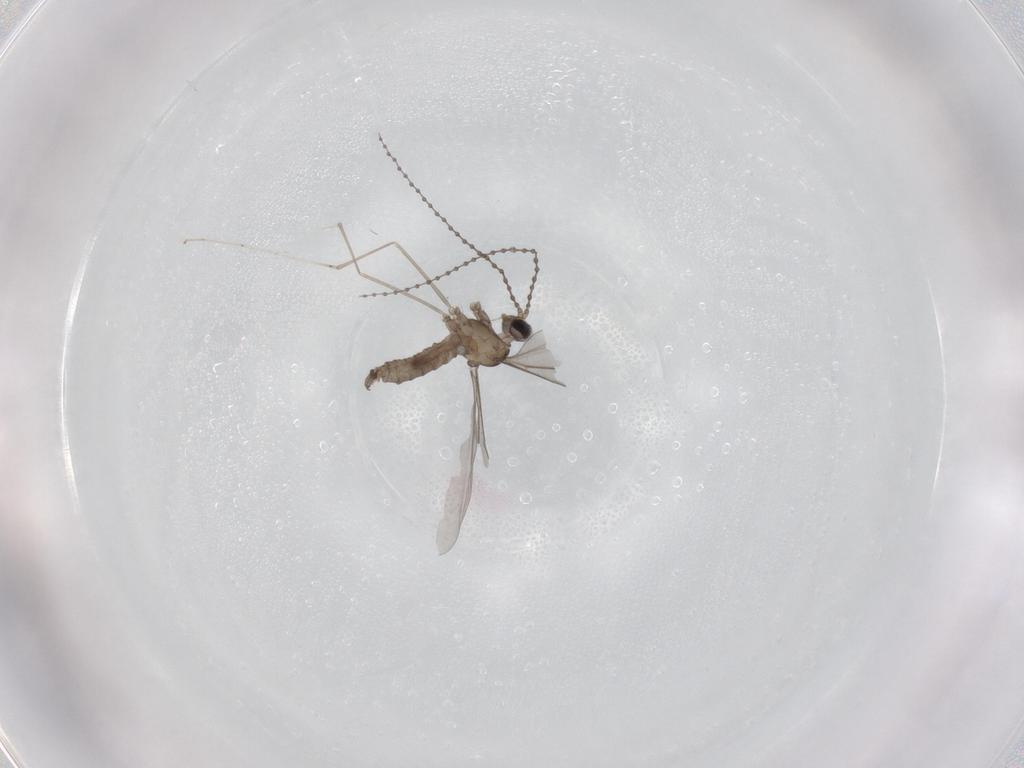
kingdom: Animalia
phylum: Arthropoda
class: Insecta
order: Diptera
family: Cecidomyiidae
